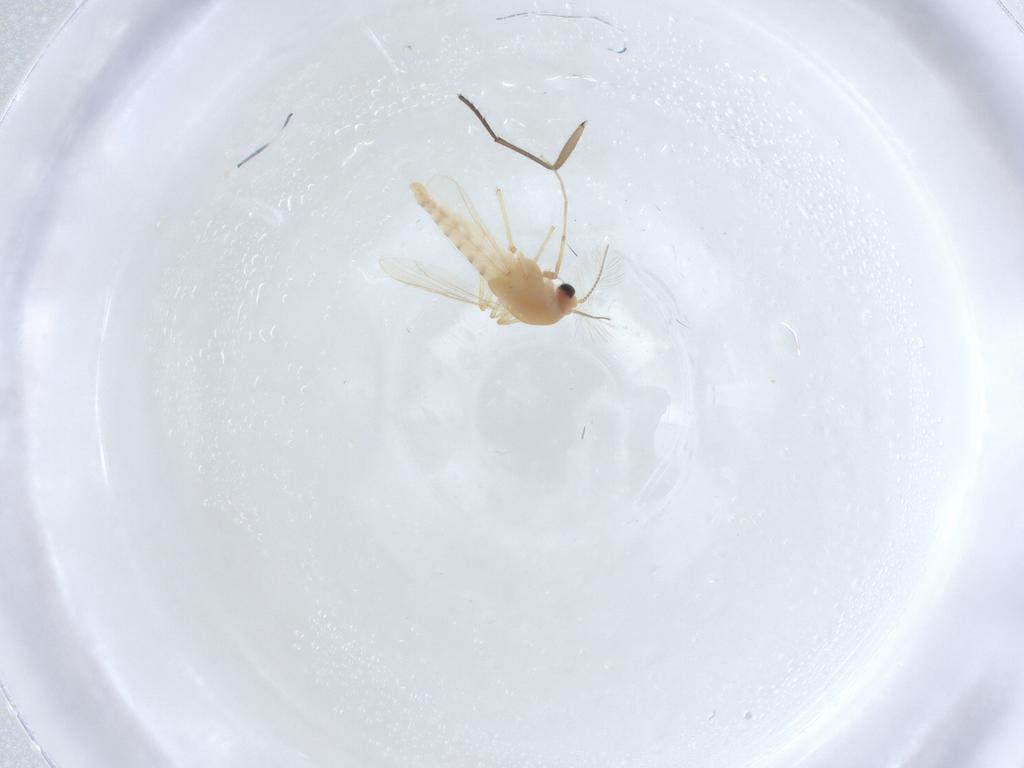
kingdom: Animalia
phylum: Arthropoda
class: Insecta
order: Diptera
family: Chironomidae
